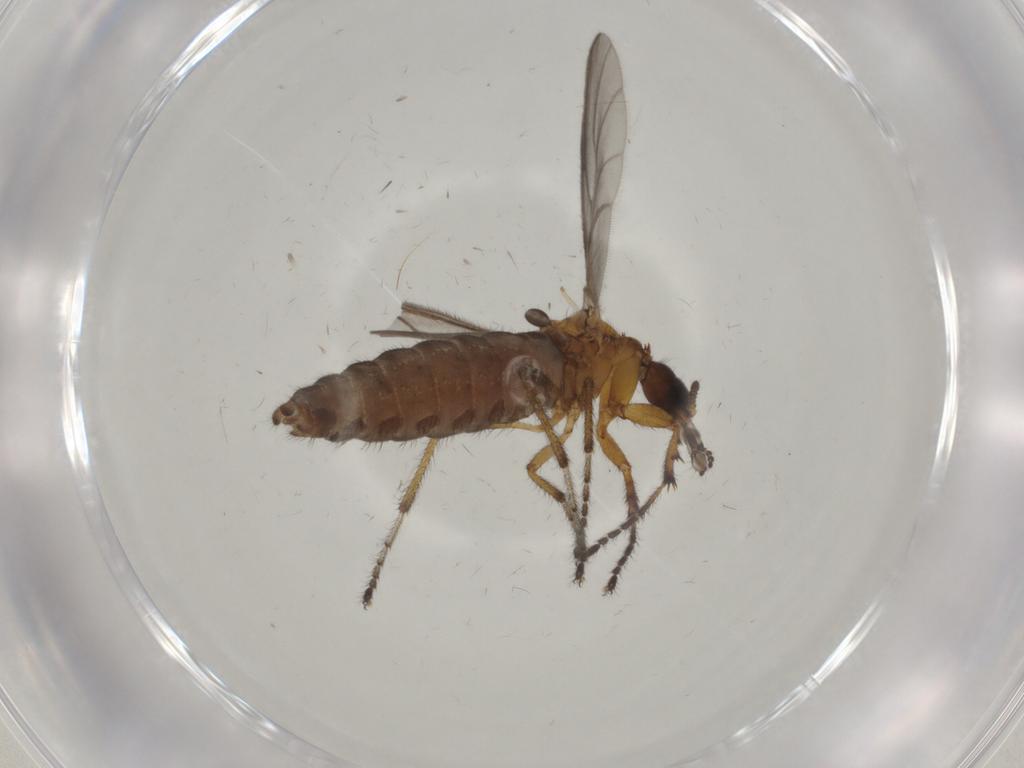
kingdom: Animalia
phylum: Arthropoda
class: Insecta
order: Diptera
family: Bibionidae
